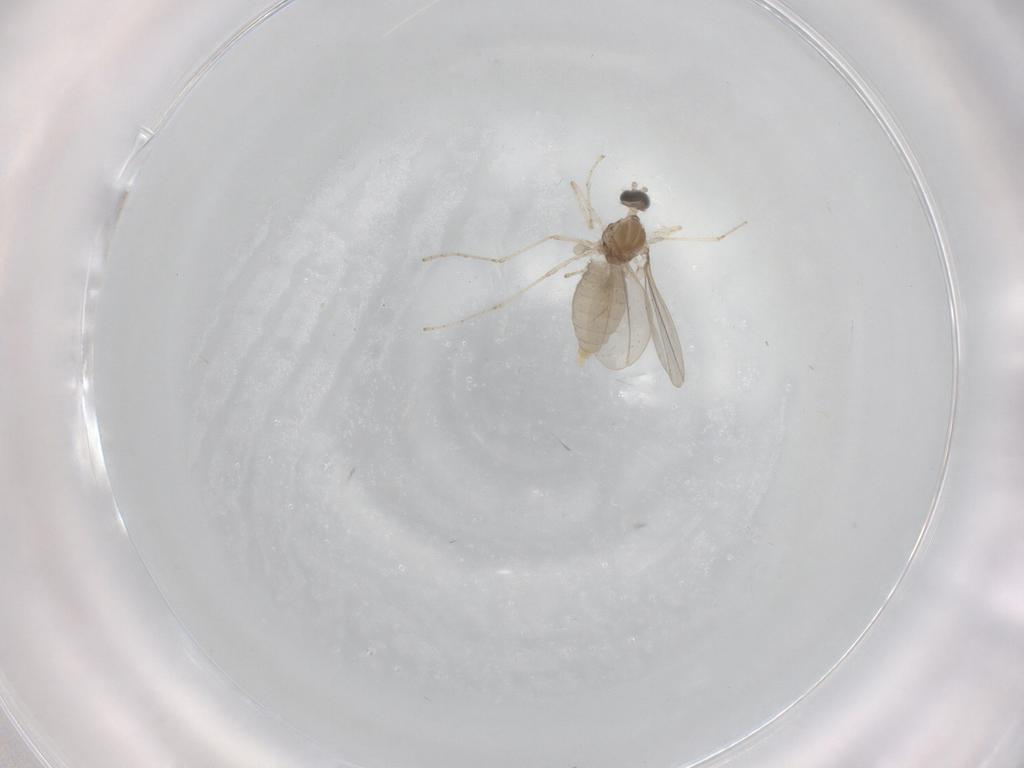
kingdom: Animalia
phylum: Arthropoda
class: Insecta
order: Diptera
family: Cecidomyiidae
